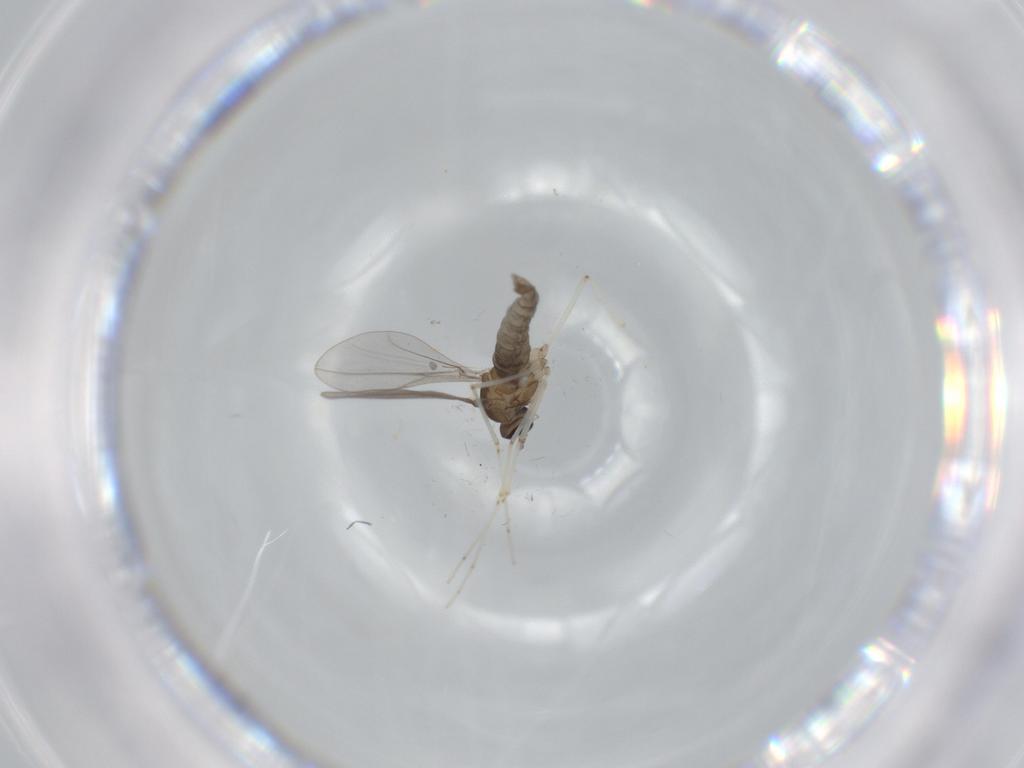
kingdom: Animalia
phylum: Arthropoda
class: Insecta
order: Diptera
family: Cecidomyiidae
